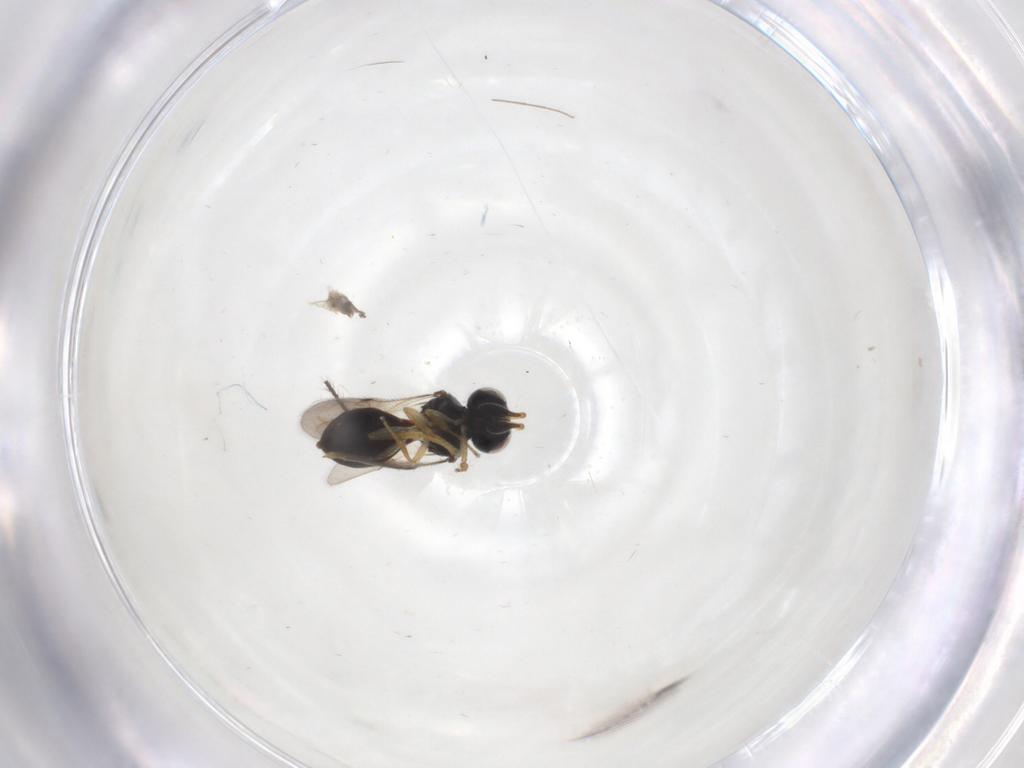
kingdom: Animalia
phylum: Arthropoda
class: Insecta
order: Hymenoptera
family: Scelionidae
